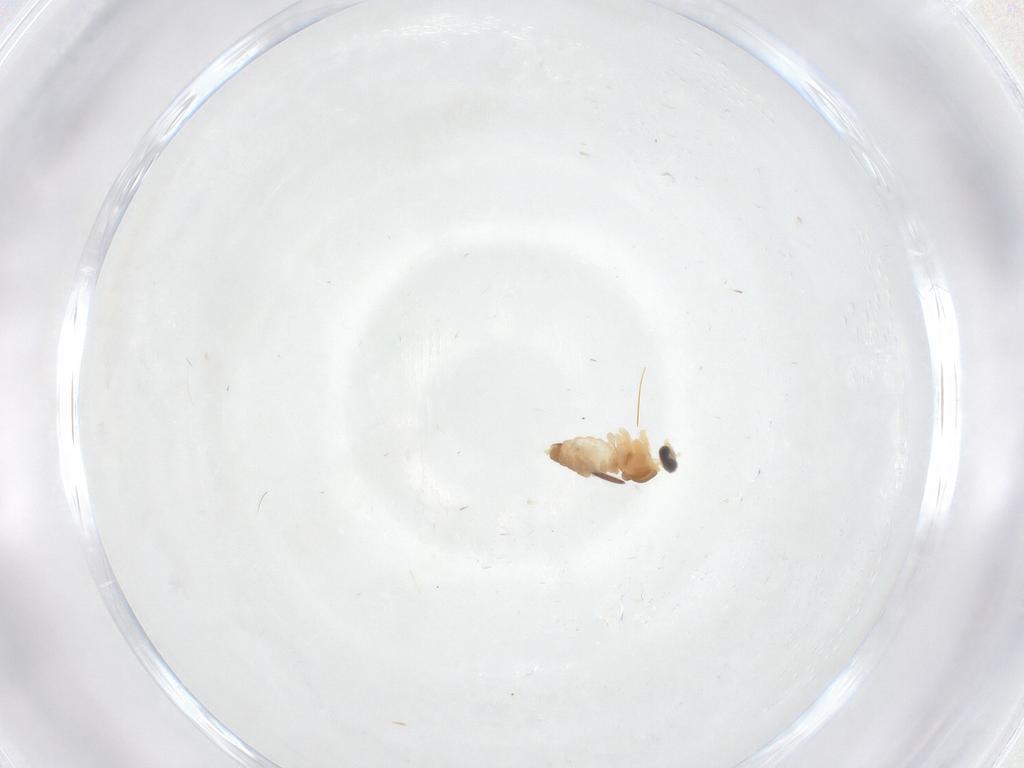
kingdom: Animalia
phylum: Arthropoda
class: Insecta
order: Diptera
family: Cecidomyiidae
